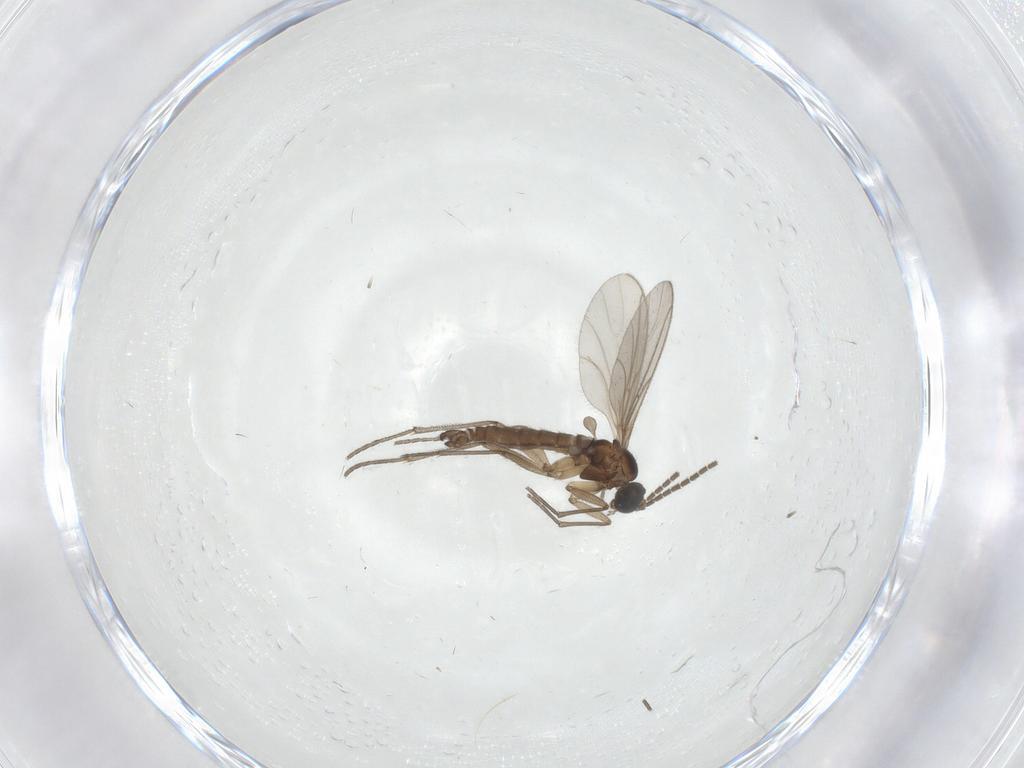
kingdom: Animalia
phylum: Arthropoda
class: Insecta
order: Diptera
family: Sciaridae
